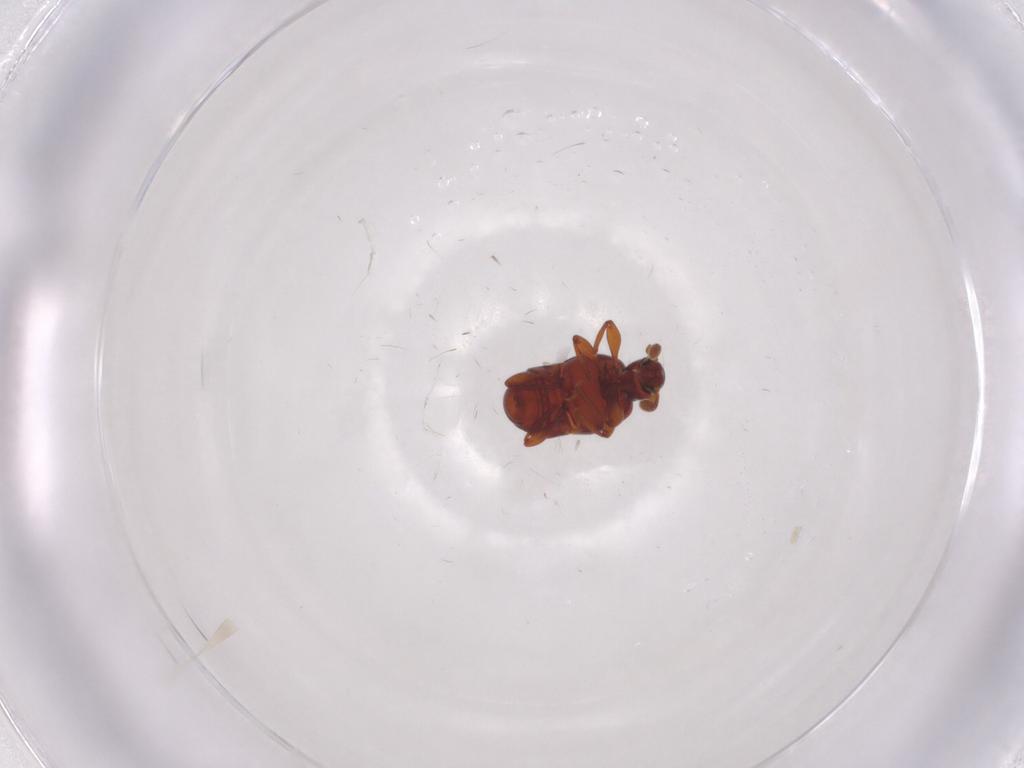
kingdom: Animalia
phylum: Arthropoda
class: Insecta
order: Coleoptera
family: Staphylinidae
